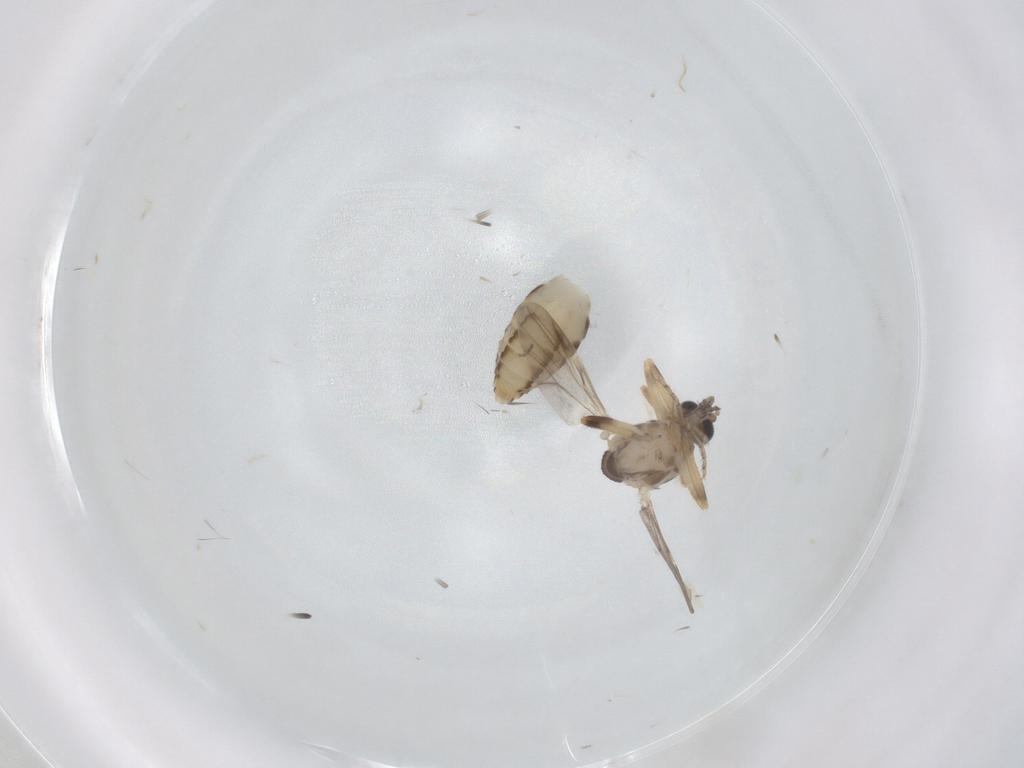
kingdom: Animalia
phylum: Arthropoda
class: Insecta
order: Diptera
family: Ceratopogonidae
